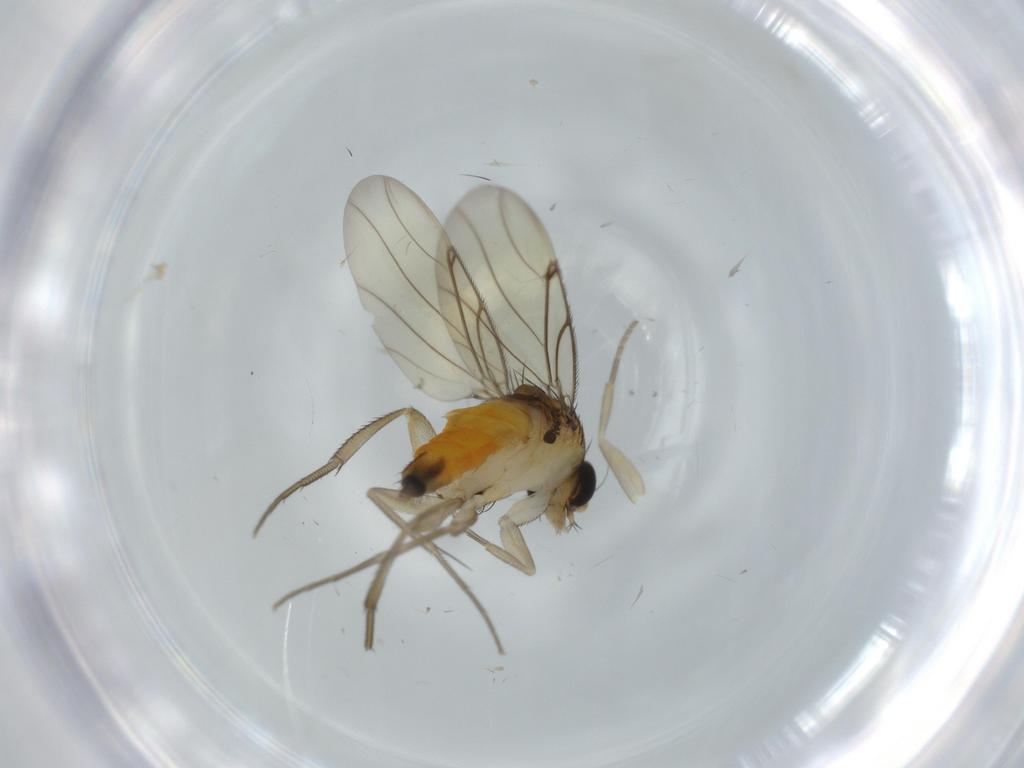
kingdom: Animalia
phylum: Arthropoda
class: Insecta
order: Diptera
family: Phoridae
